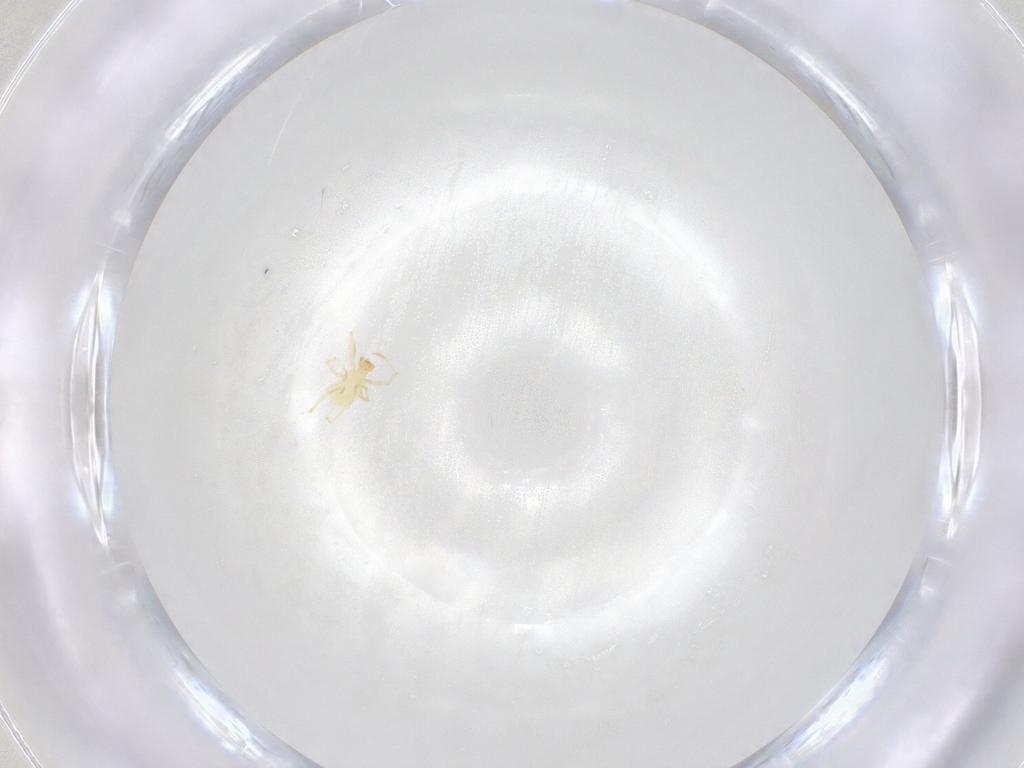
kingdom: Animalia
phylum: Arthropoda
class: Arachnida
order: Trombidiformes
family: Erythraeidae
